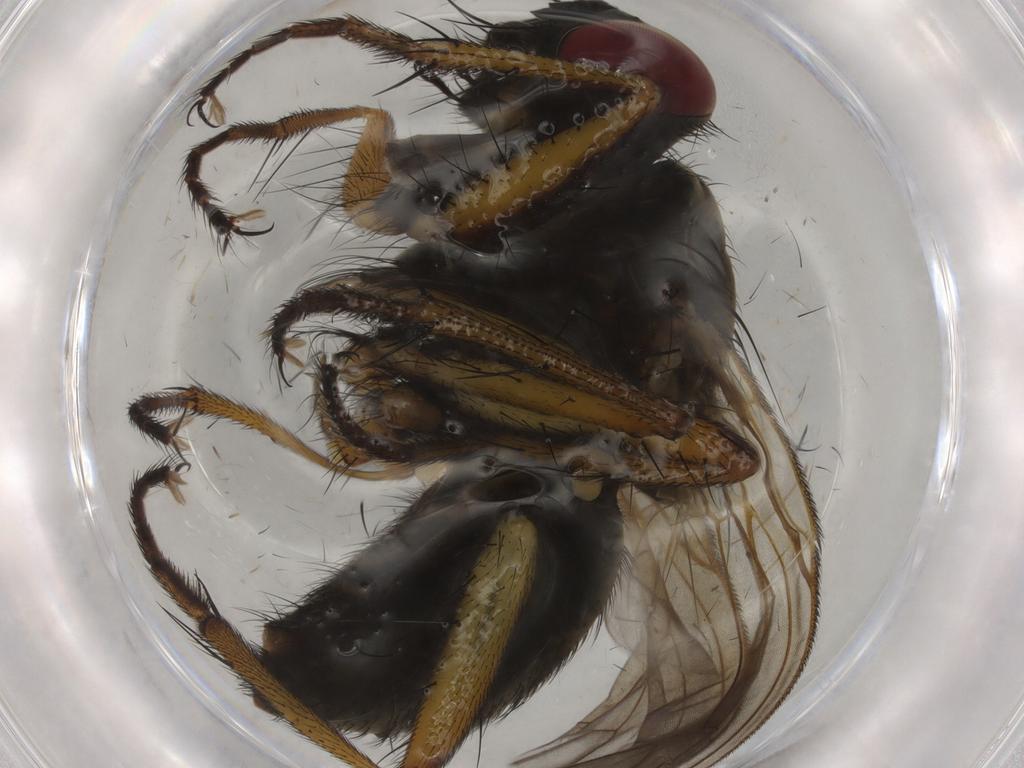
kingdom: Animalia
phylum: Arthropoda
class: Insecta
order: Diptera
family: Muscidae
